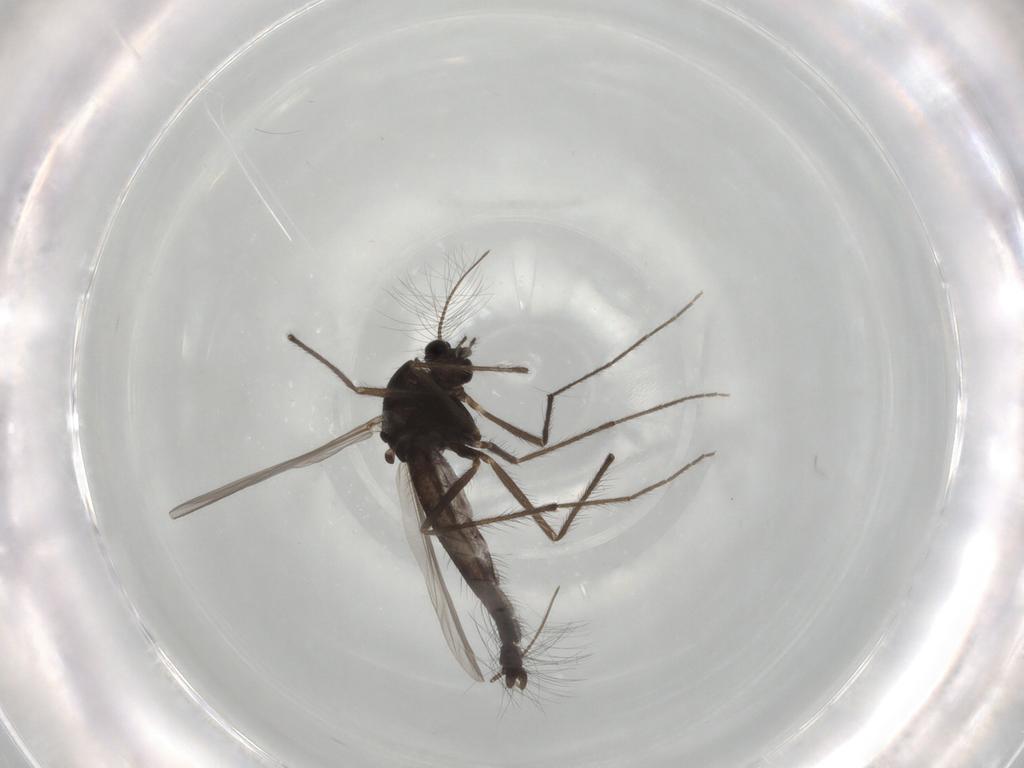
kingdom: Animalia
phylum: Arthropoda
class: Insecta
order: Diptera
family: Chironomidae
